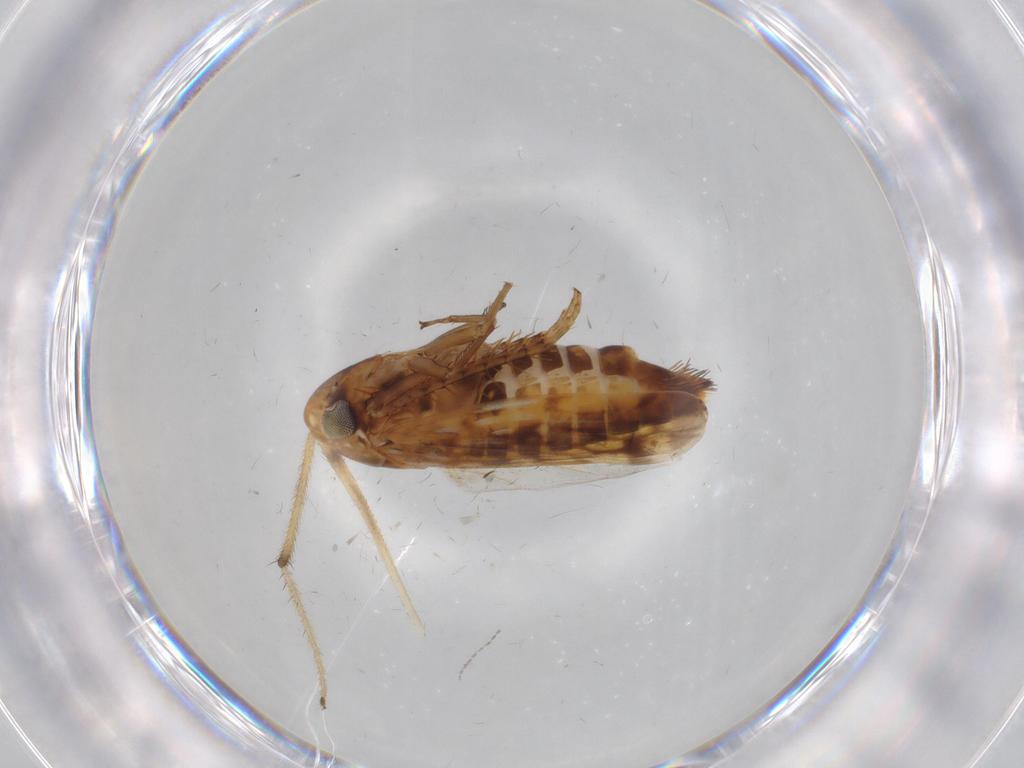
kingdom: Animalia
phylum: Arthropoda
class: Insecta
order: Hemiptera
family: Cicadellidae
